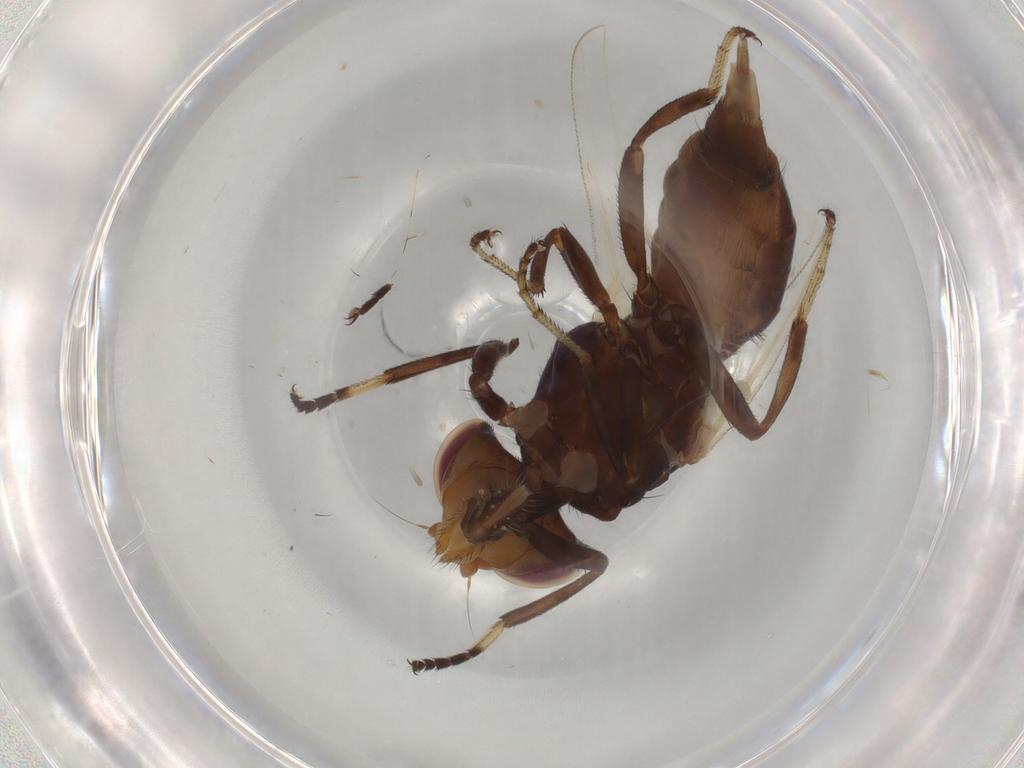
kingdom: Animalia
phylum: Arthropoda
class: Insecta
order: Diptera
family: Ulidiidae
